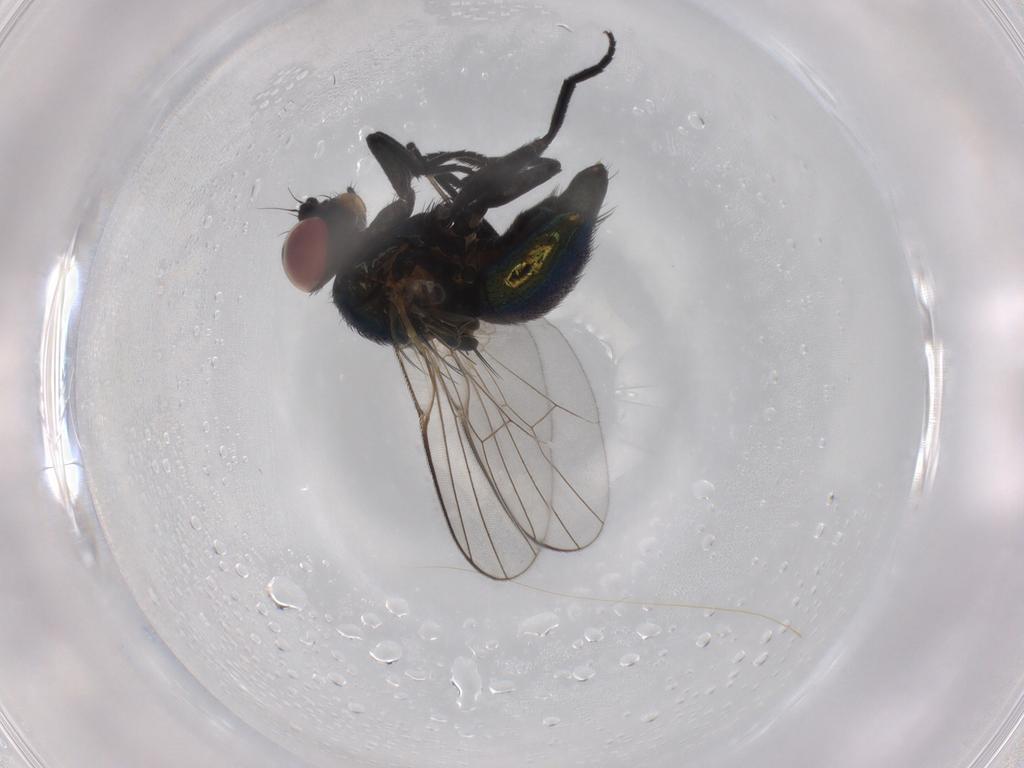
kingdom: Animalia
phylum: Arthropoda
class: Insecta
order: Diptera
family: Agromyzidae
